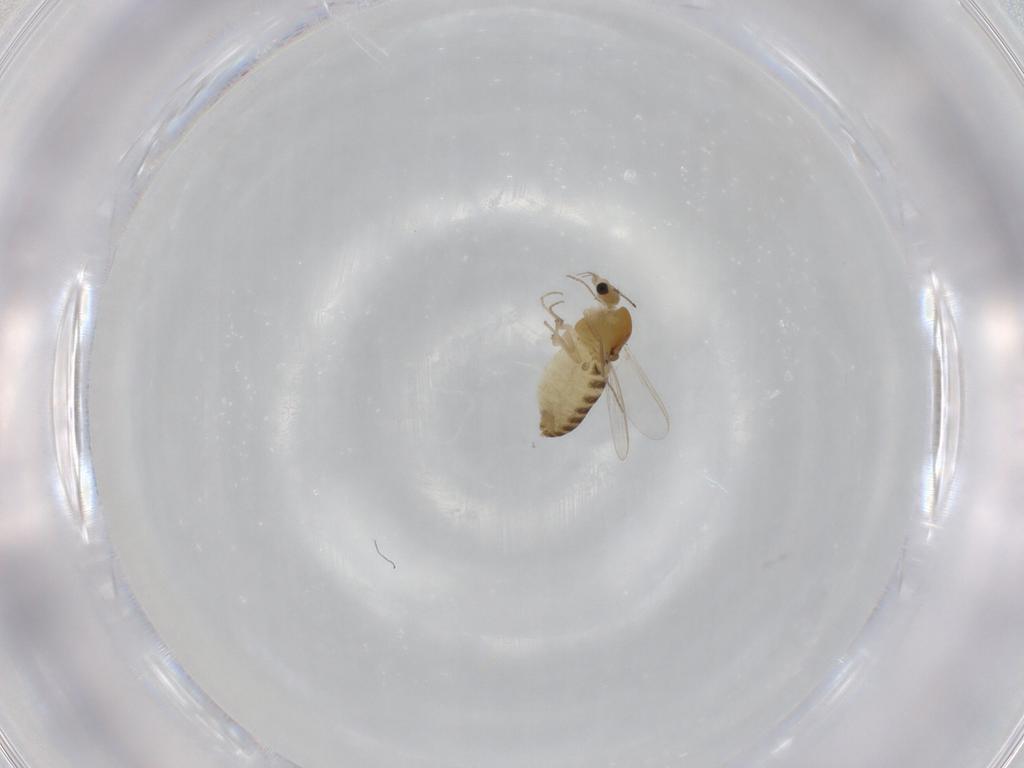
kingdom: Animalia
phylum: Arthropoda
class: Insecta
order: Diptera
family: Chironomidae
